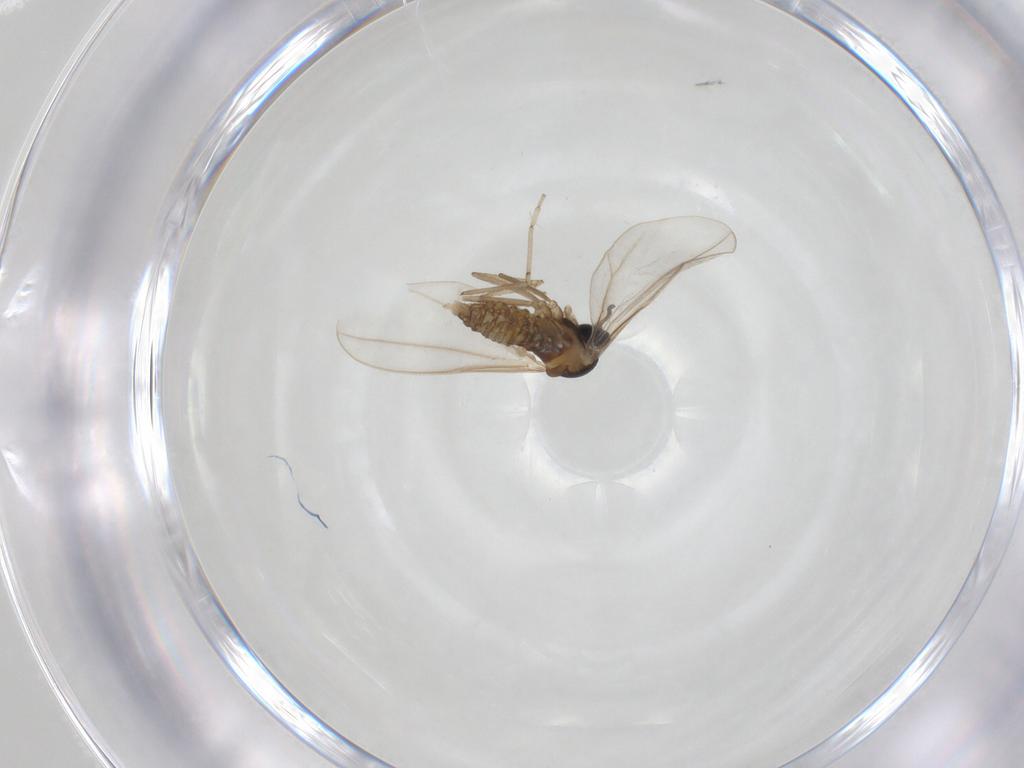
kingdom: Animalia
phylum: Arthropoda
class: Insecta
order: Diptera
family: Cecidomyiidae
